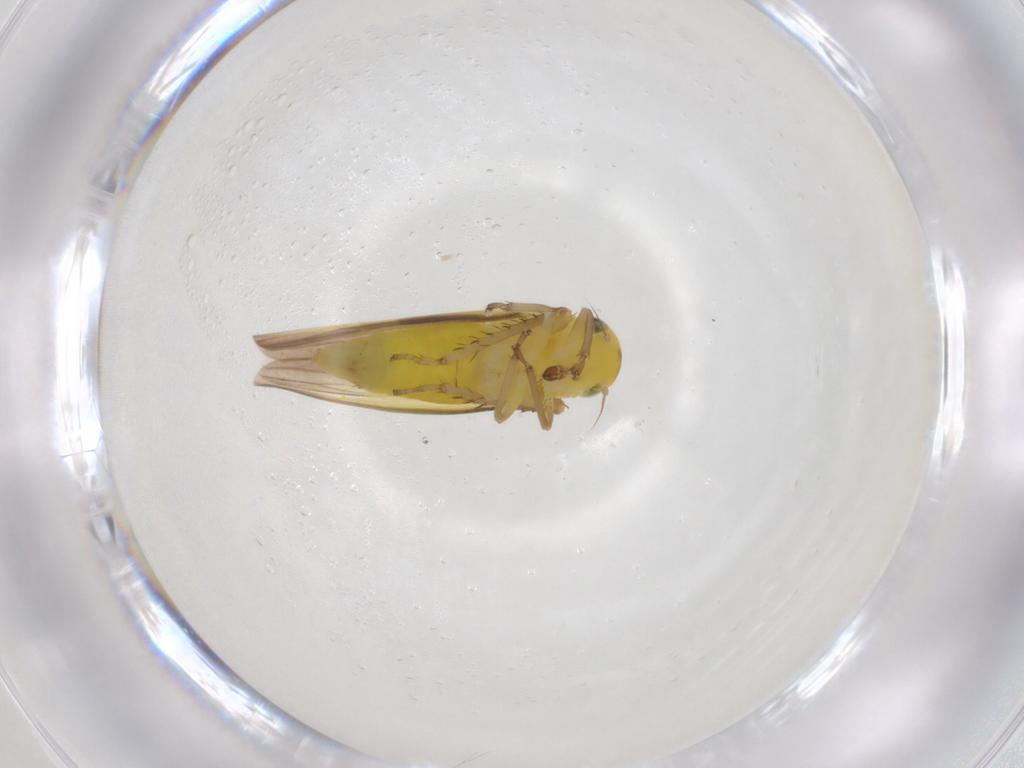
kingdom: Animalia
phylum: Arthropoda
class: Insecta
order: Hemiptera
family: Cicadellidae
